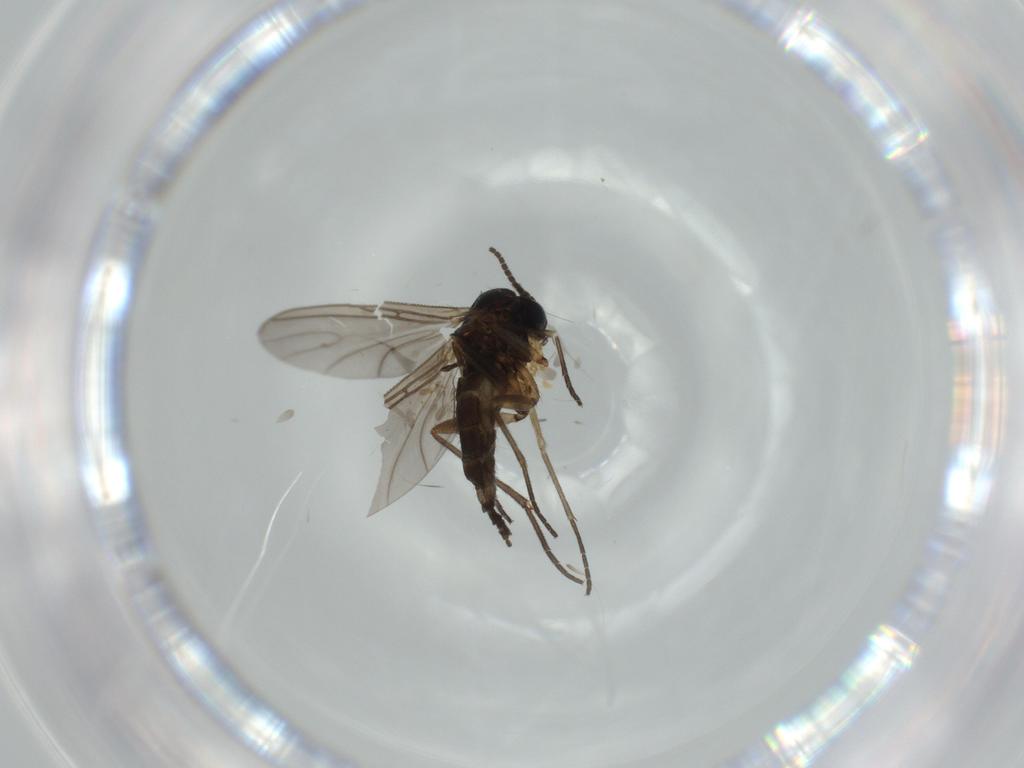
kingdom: Animalia
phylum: Arthropoda
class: Insecta
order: Diptera
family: Sciaridae
